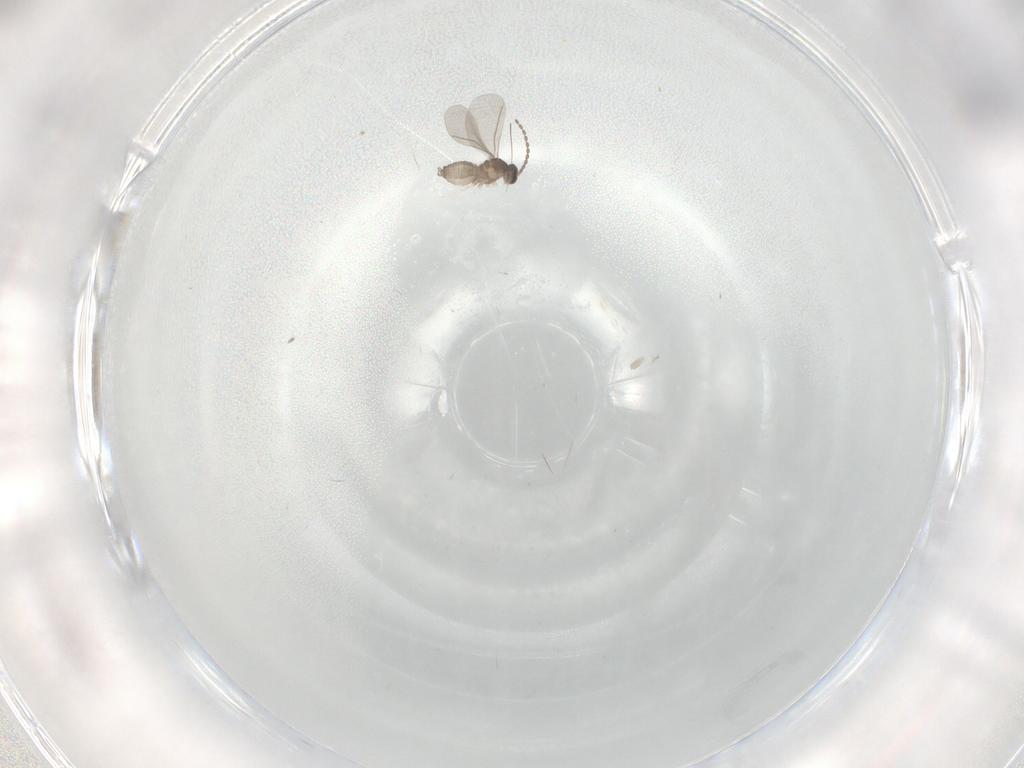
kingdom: Animalia
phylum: Arthropoda
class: Insecta
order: Diptera
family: Cecidomyiidae
